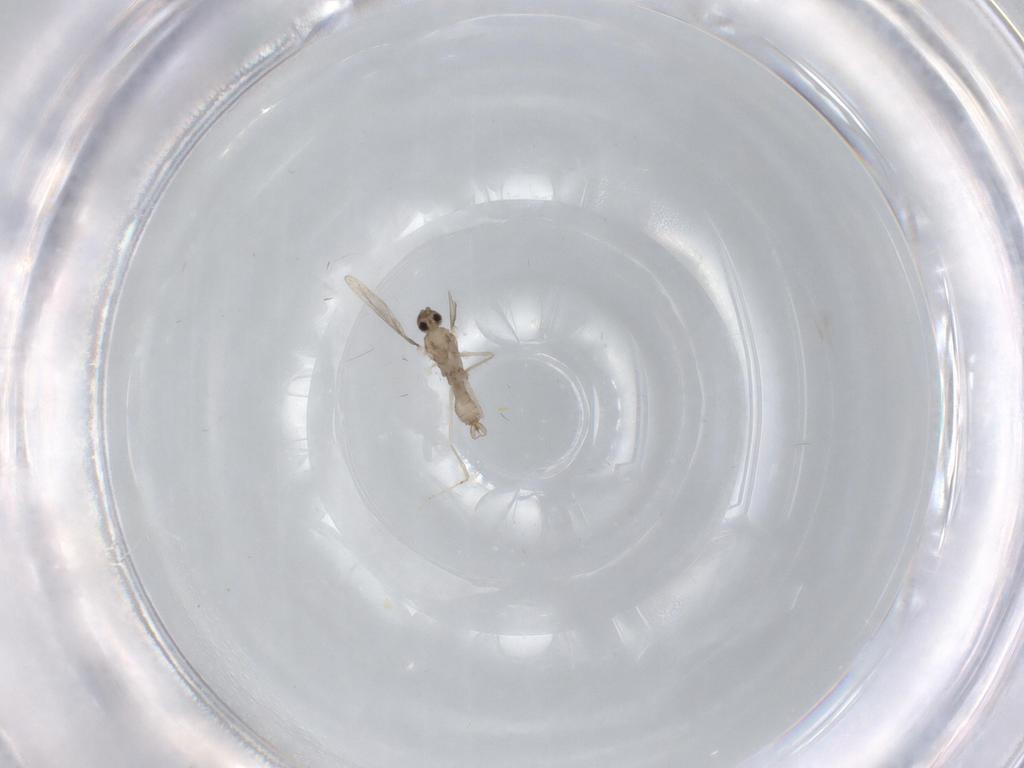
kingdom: Animalia
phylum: Arthropoda
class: Insecta
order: Diptera
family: Cecidomyiidae
